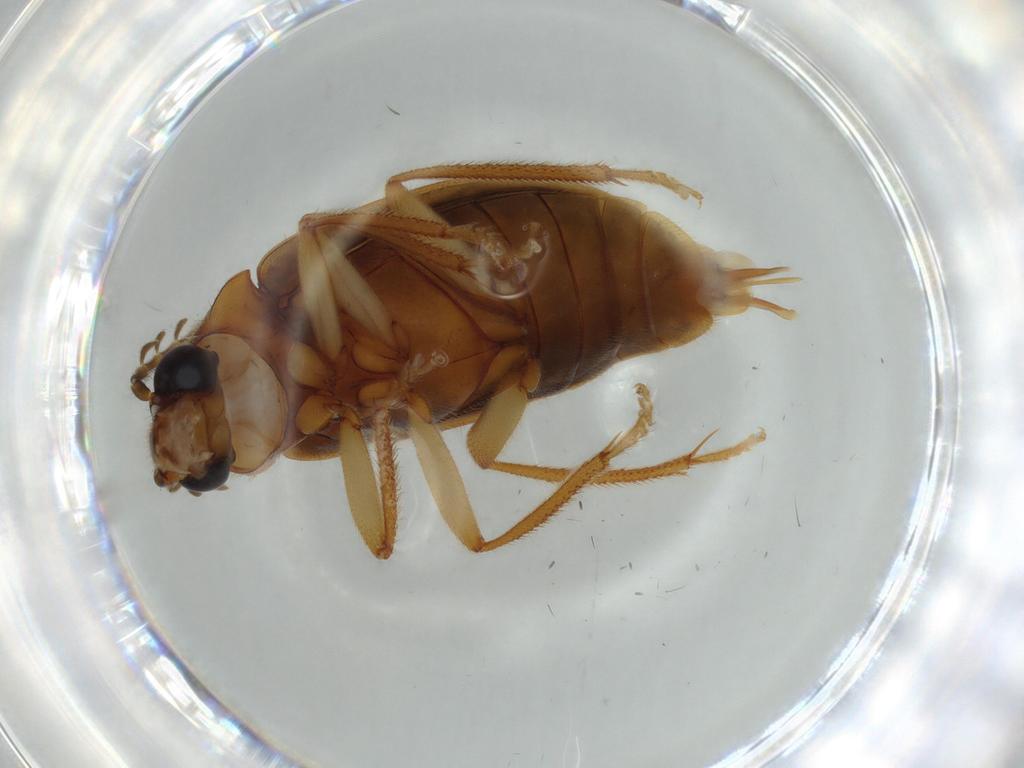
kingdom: Animalia
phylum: Arthropoda
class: Insecta
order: Coleoptera
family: Ptilodactylidae
